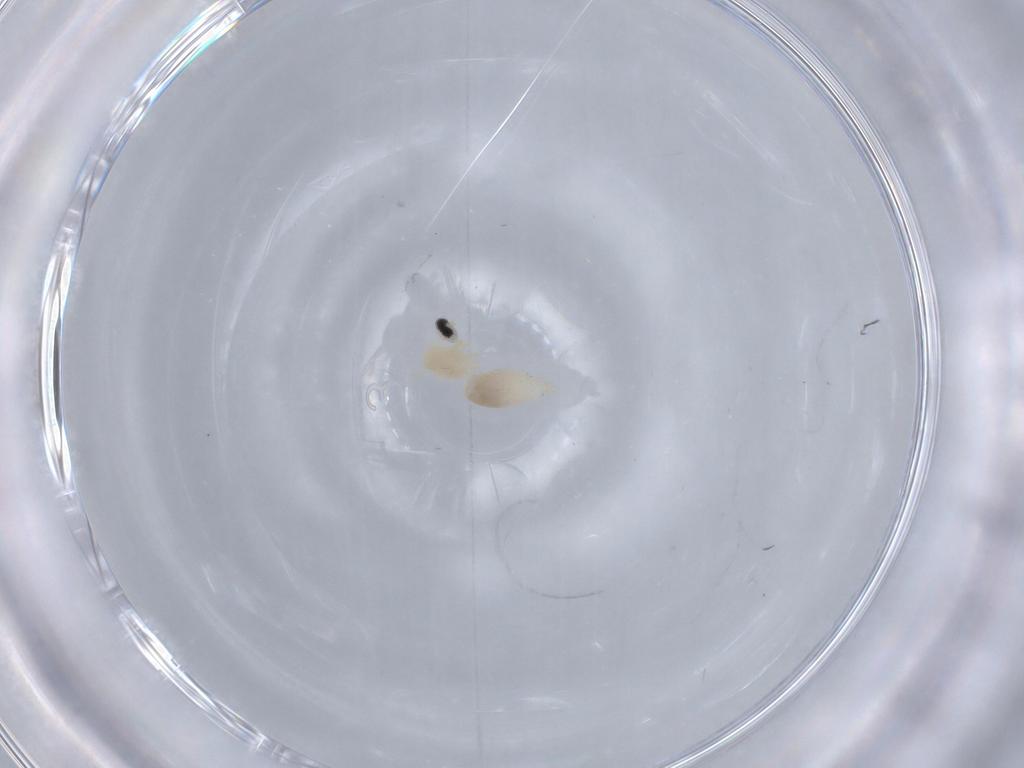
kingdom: Animalia
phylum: Arthropoda
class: Insecta
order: Diptera
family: Cecidomyiidae
